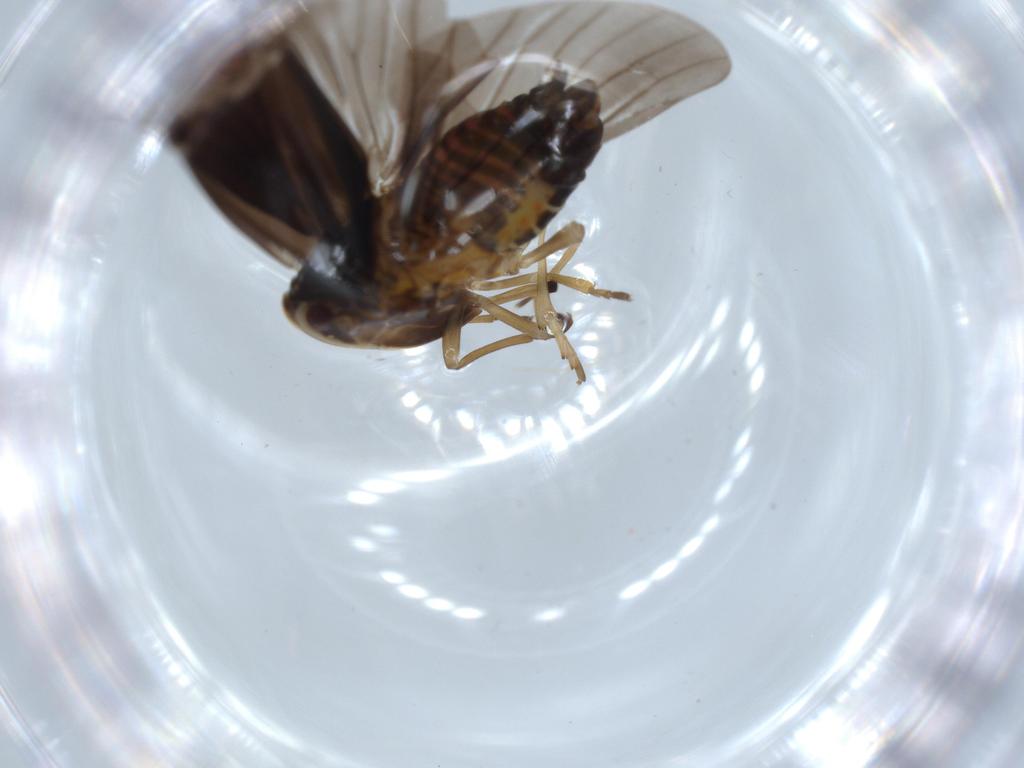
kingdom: Animalia
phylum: Arthropoda
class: Insecta
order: Hemiptera
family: Derbidae
